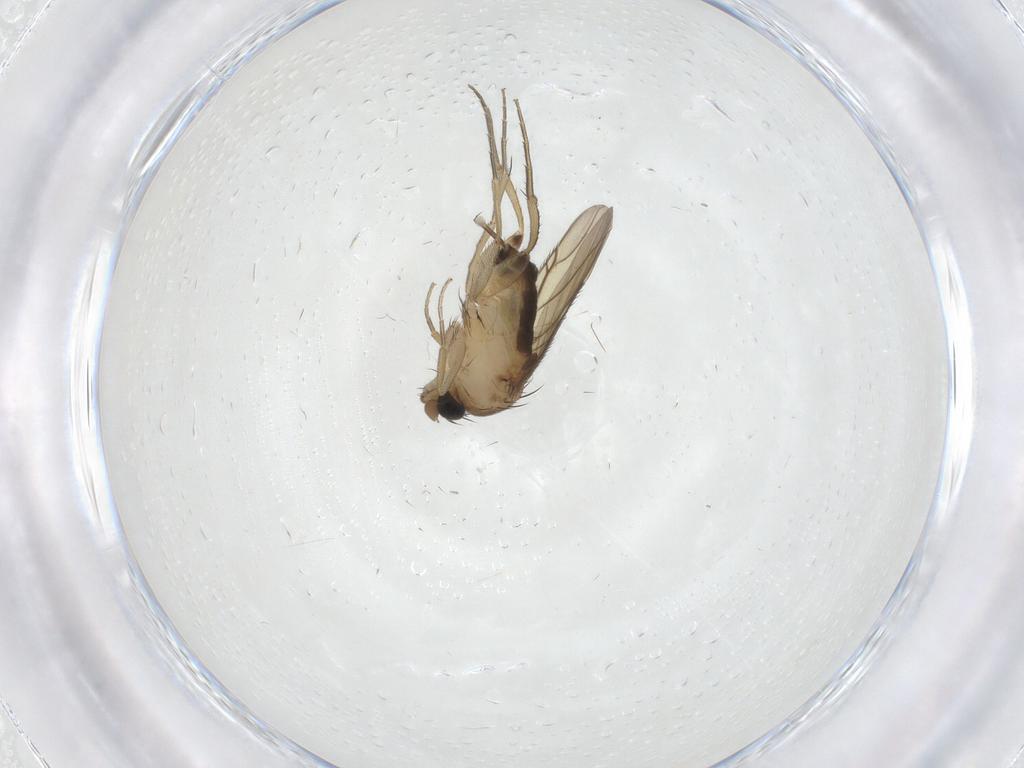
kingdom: Animalia
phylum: Arthropoda
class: Insecta
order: Diptera
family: Phoridae
